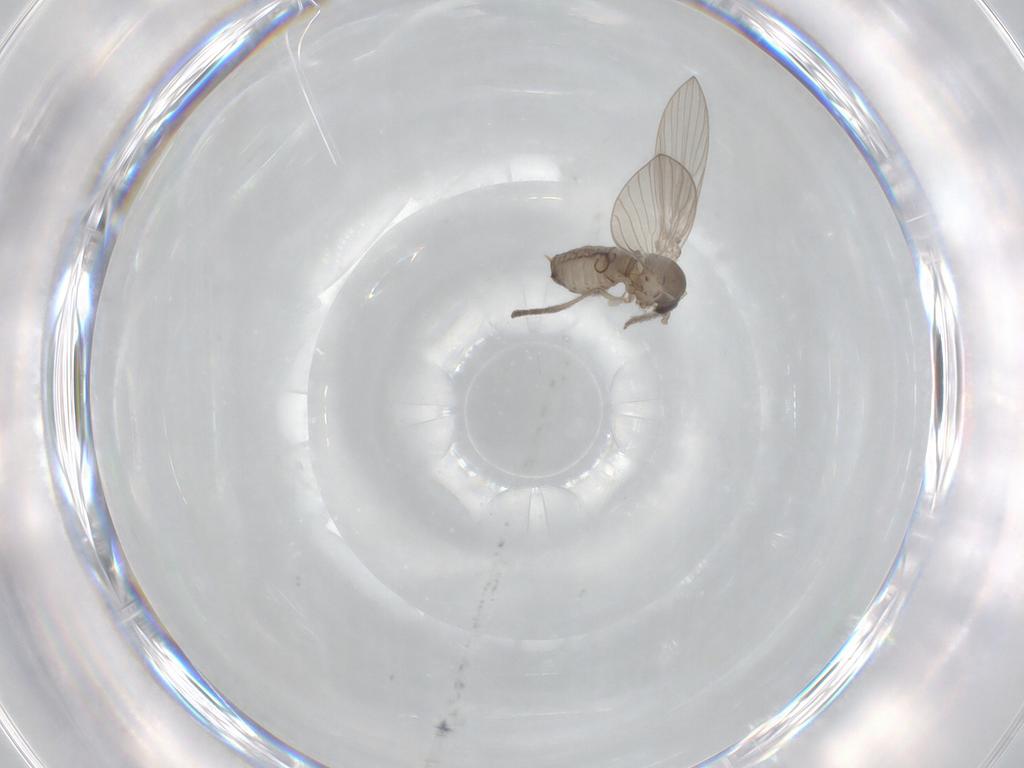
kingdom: Animalia
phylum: Arthropoda
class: Insecta
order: Diptera
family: Psychodidae
